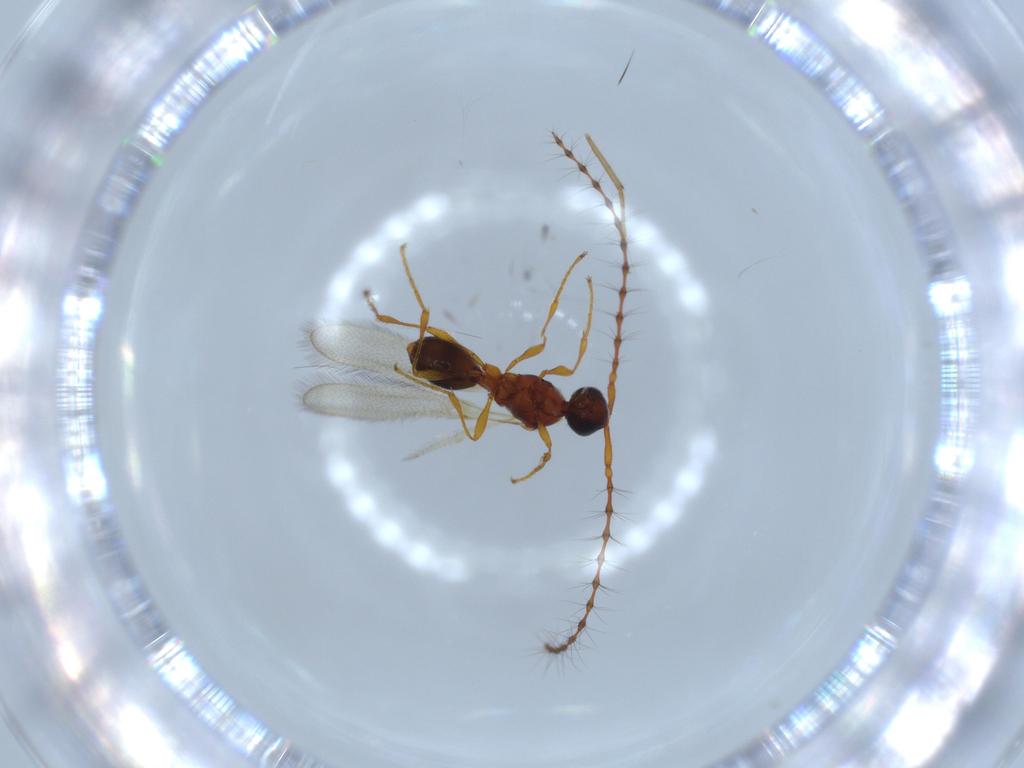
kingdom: Animalia
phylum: Arthropoda
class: Insecta
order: Hymenoptera
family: Diapriidae
